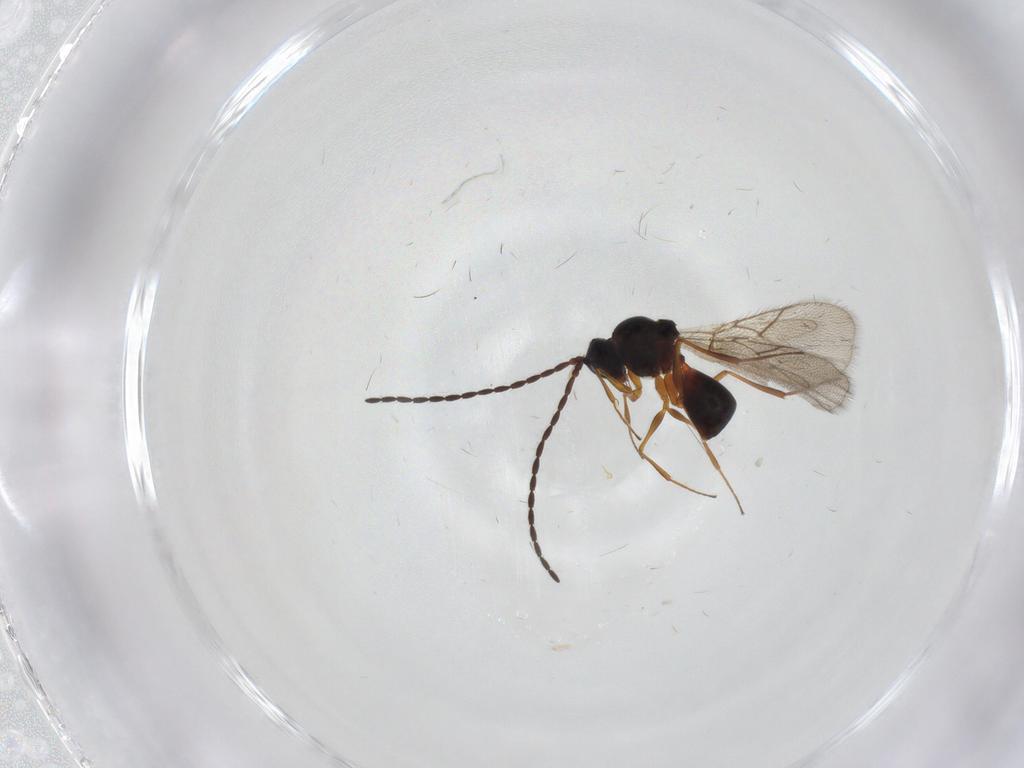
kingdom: Animalia
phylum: Arthropoda
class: Insecta
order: Hymenoptera
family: Figitidae
